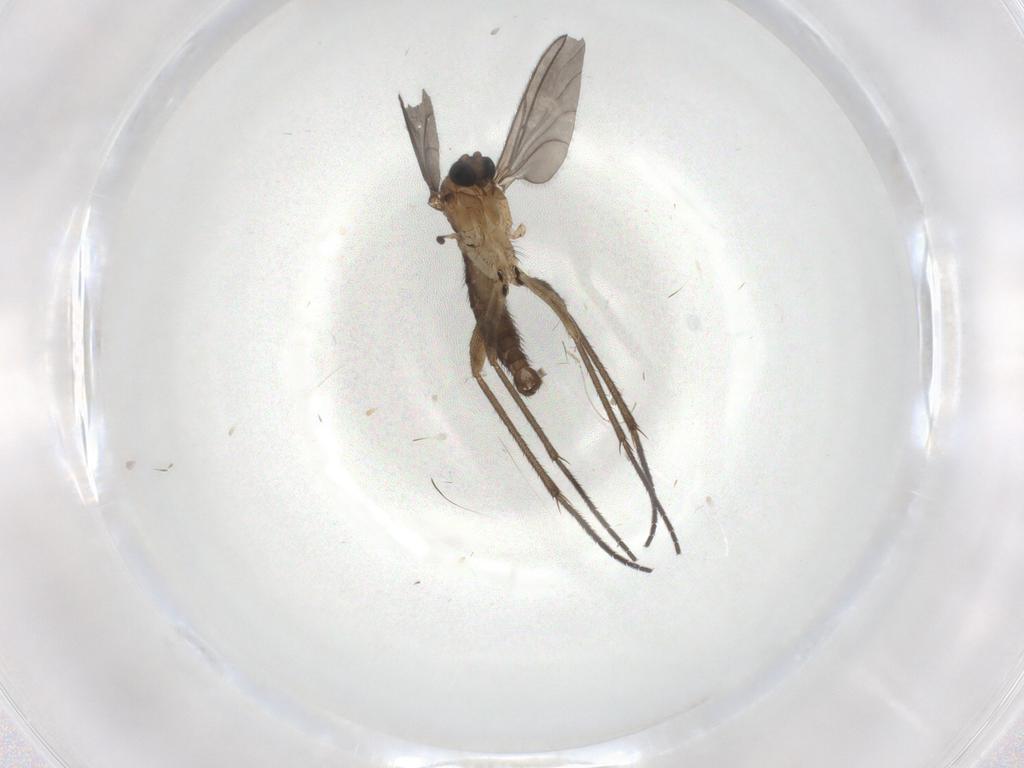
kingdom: Animalia
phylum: Arthropoda
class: Insecta
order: Diptera
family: Sciaridae
